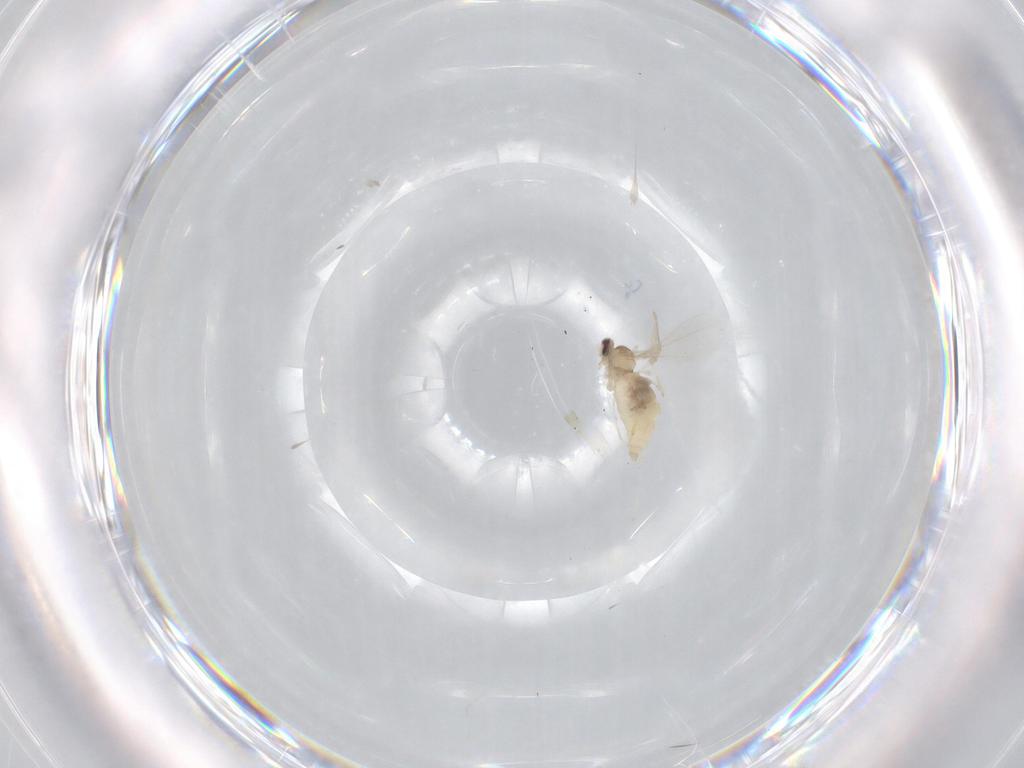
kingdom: Animalia
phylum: Arthropoda
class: Insecta
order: Diptera
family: Cecidomyiidae
